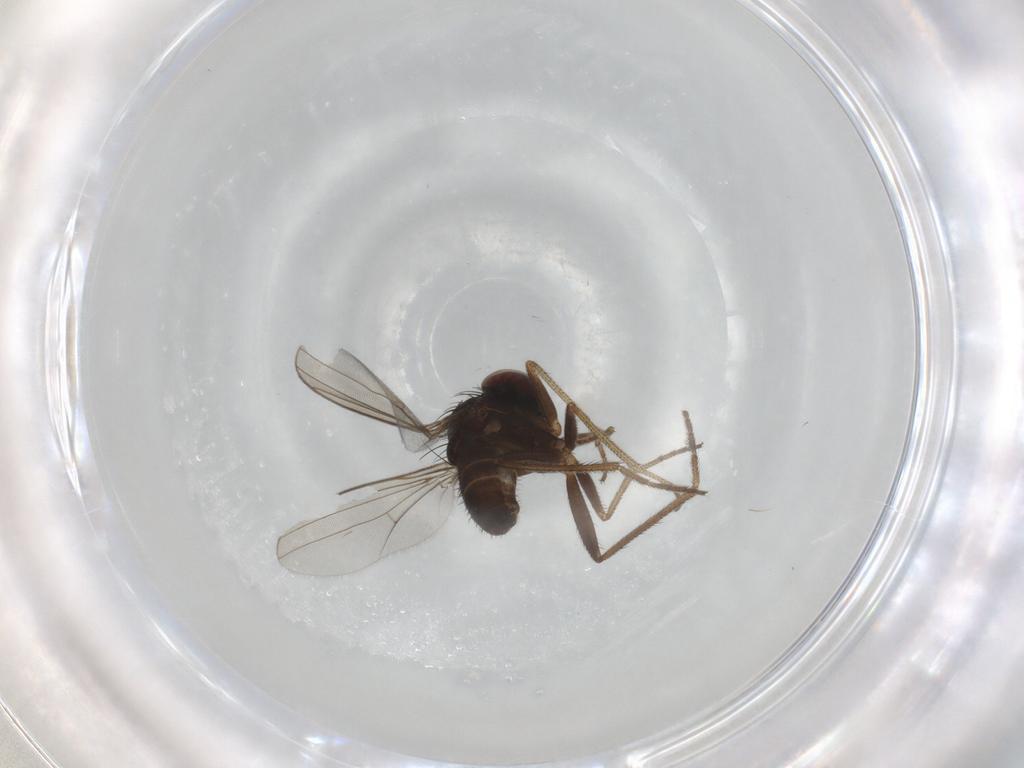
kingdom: Animalia
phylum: Arthropoda
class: Insecta
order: Diptera
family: Dolichopodidae
